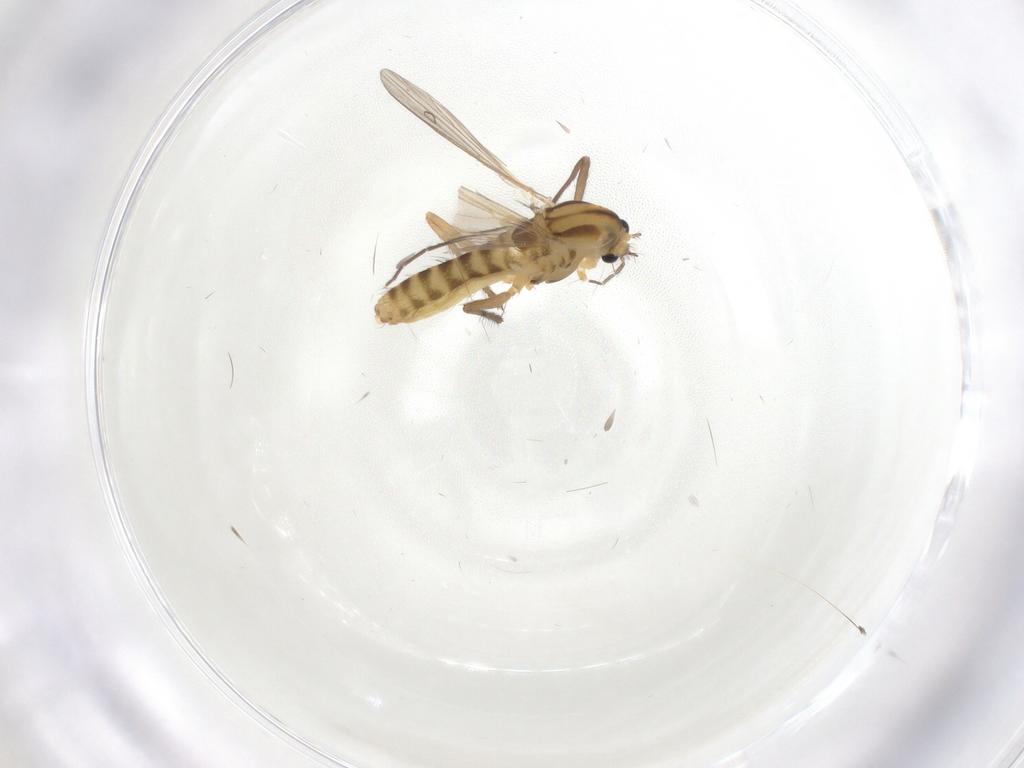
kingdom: Animalia
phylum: Arthropoda
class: Insecta
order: Diptera
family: Chironomidae
